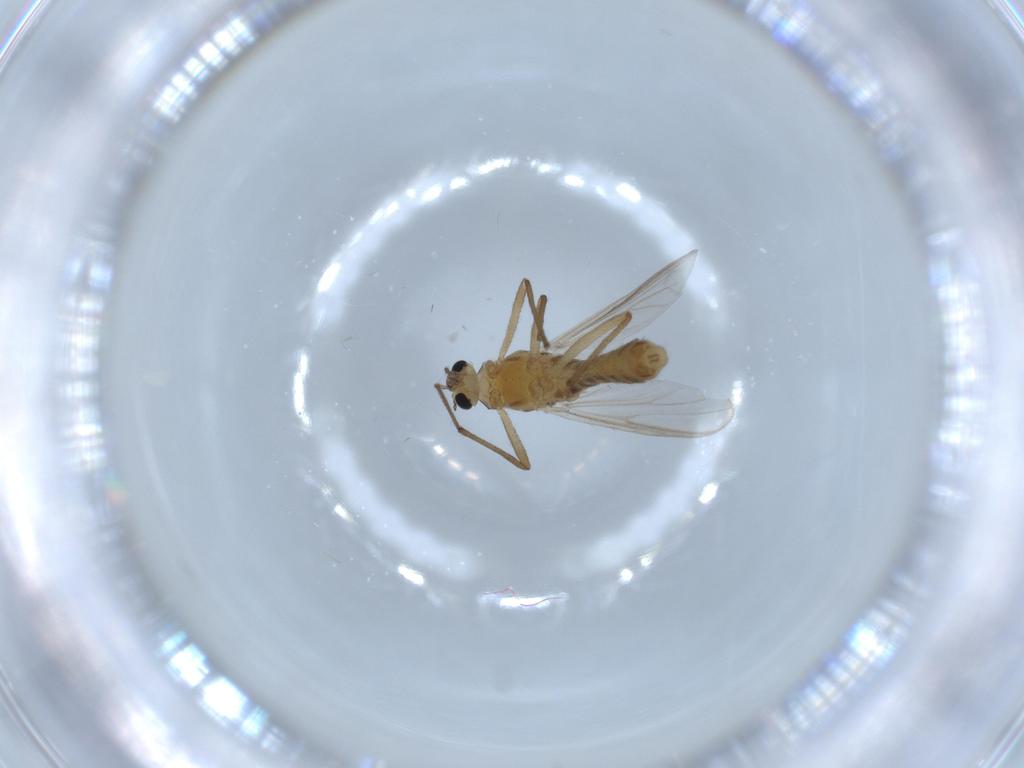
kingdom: Animalia
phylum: Arthropoda
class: Insecta
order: Diptera
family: Chironomidae
